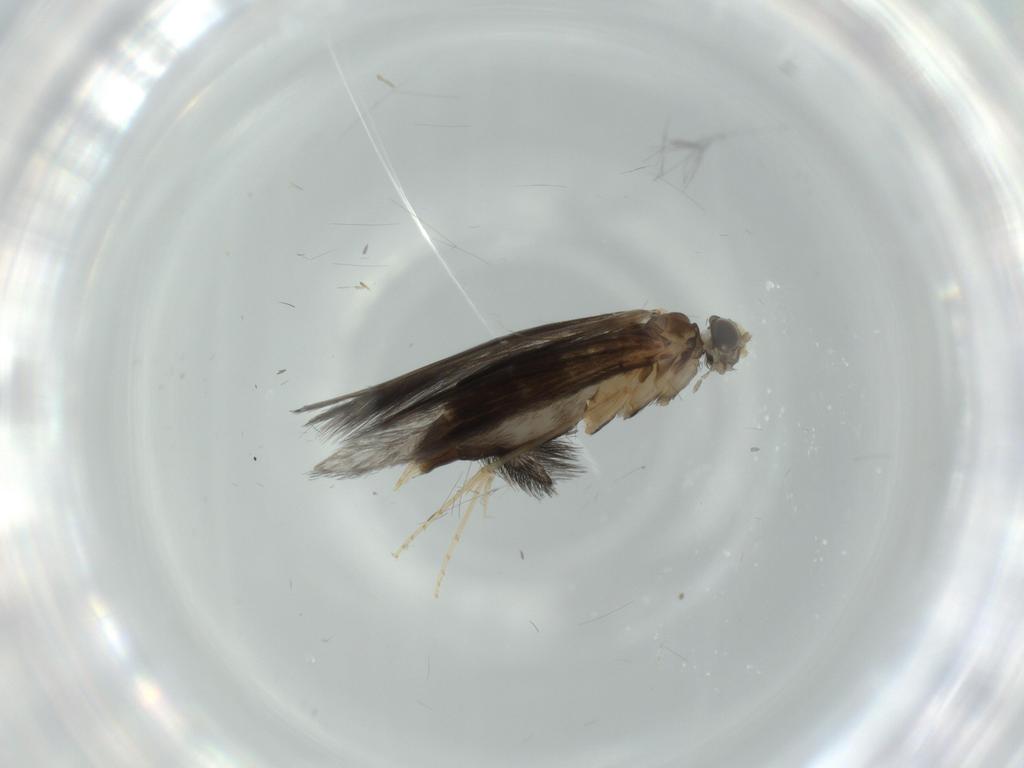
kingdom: Animalia
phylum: Arthropoda
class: Insecta
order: Trichoptera
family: Hydroptilidae
